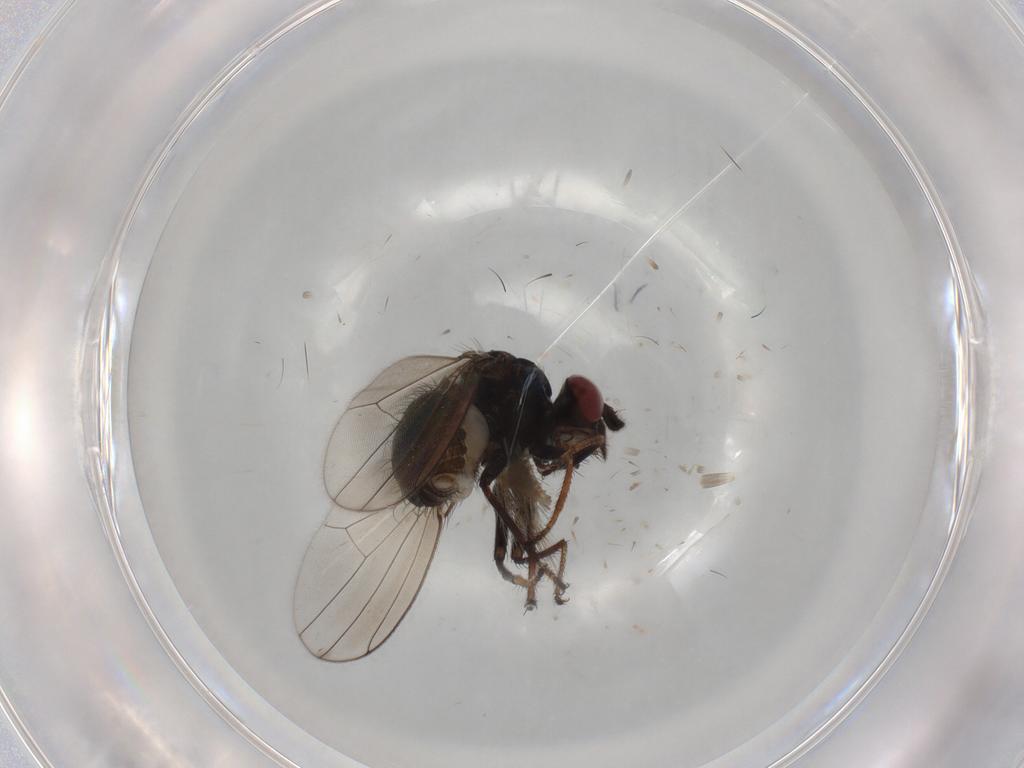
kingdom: Animalia
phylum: Arthropoda
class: Insecta
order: Diptera
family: Ephydridae
